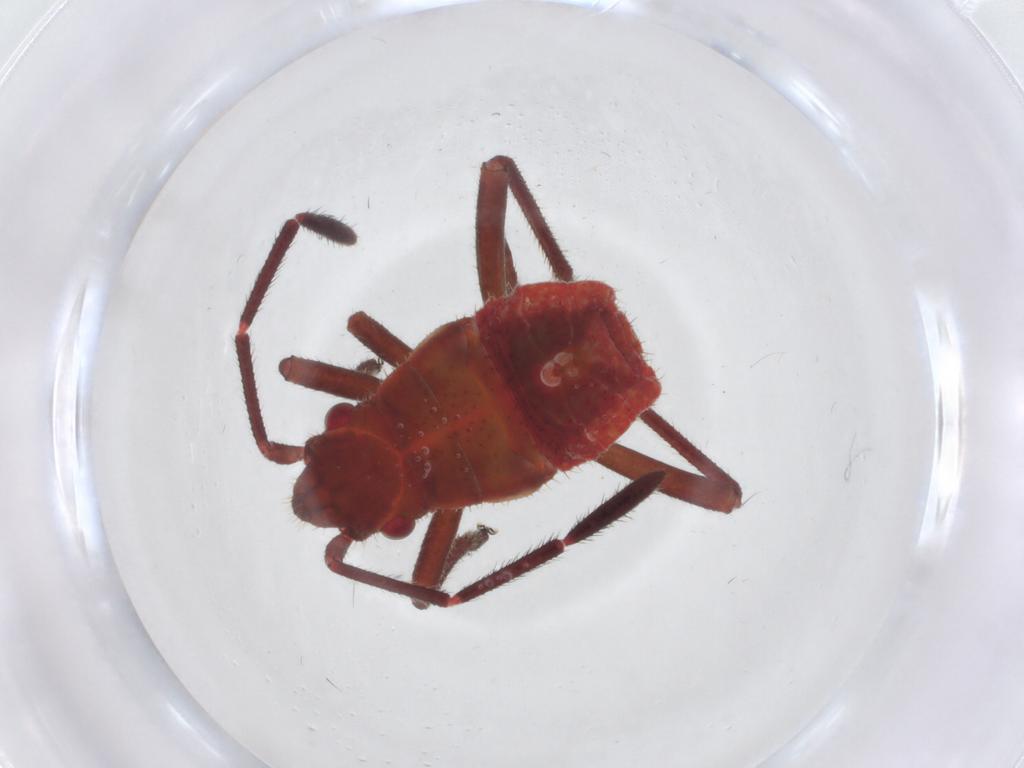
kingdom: Animalia
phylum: Arthropoda
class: Insecta
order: Hemiptera
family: Rhopalidae
